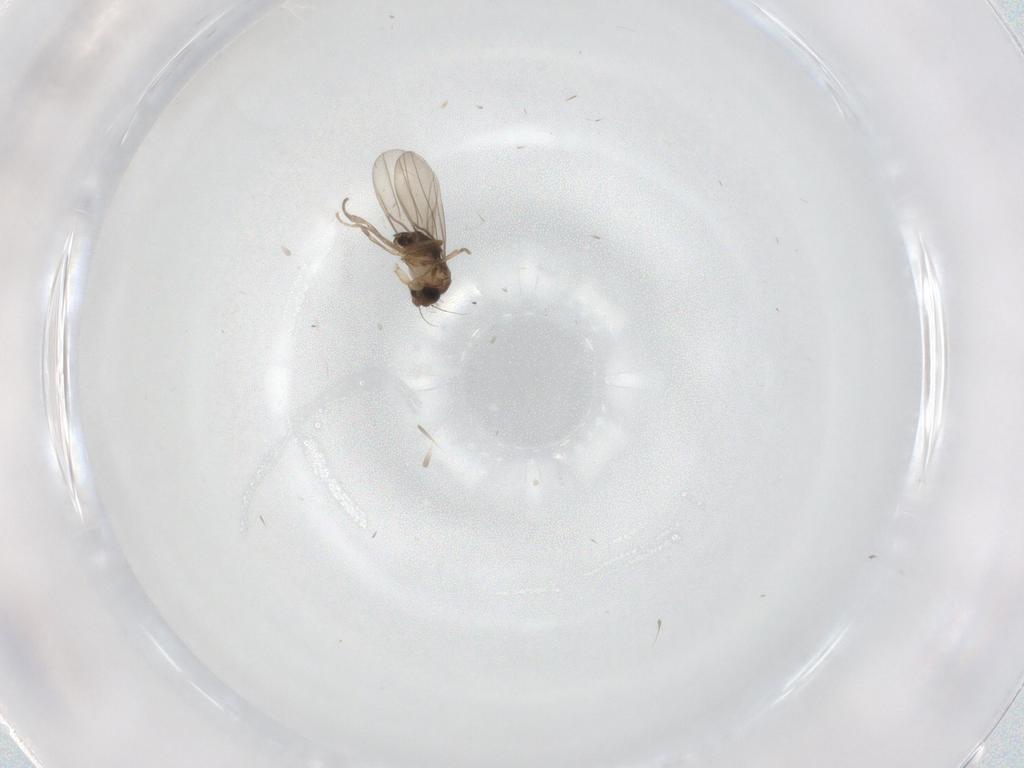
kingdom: Animalia
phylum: Arthropoda
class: Insecta
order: Diptera
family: Phoridae
